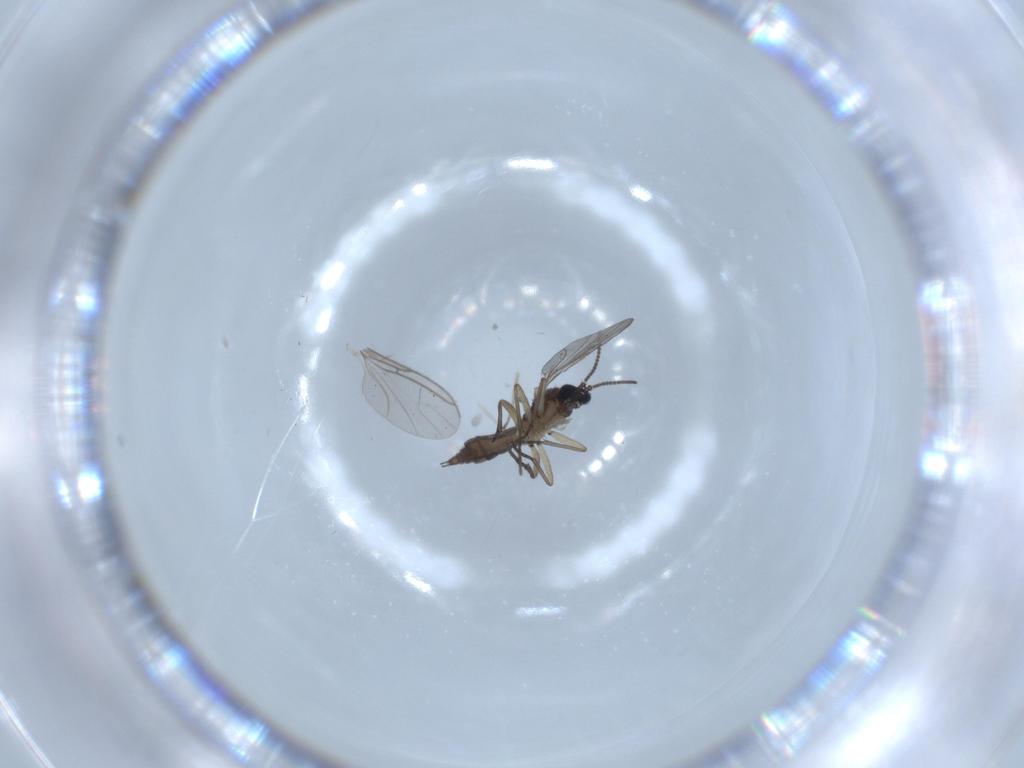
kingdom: Animalia
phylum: Arthropoda
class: Insecta
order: Diptera
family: Sciaridae
